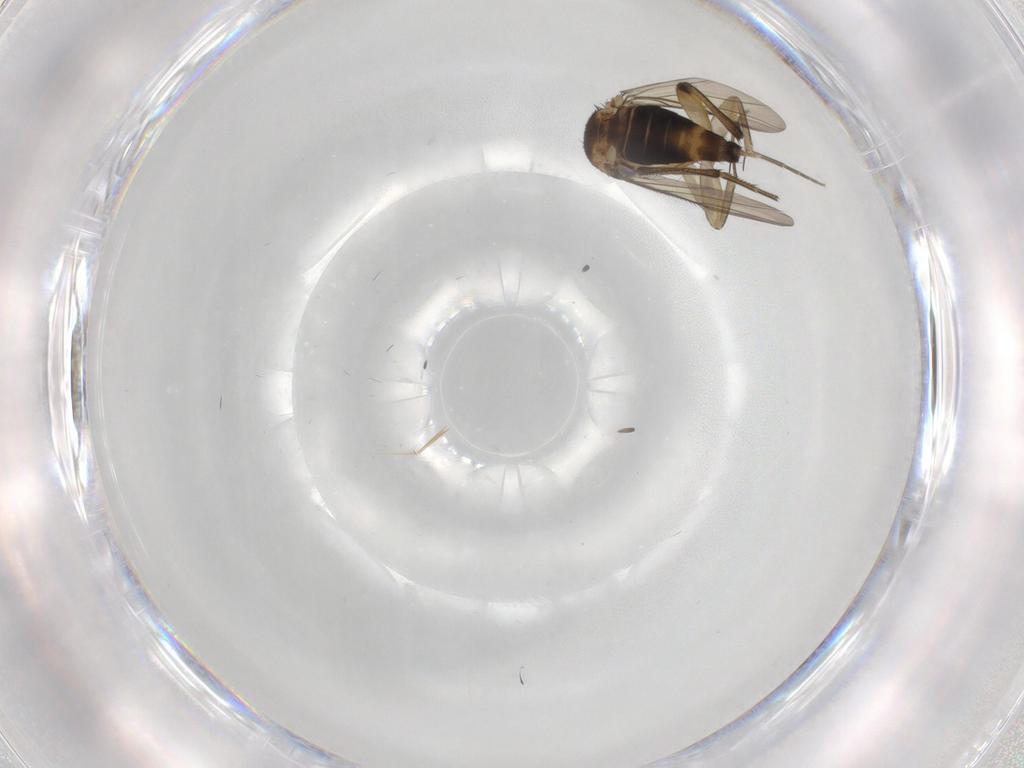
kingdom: Animalia
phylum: Arthropoda
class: Insecta
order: Diptera
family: Phoridae
